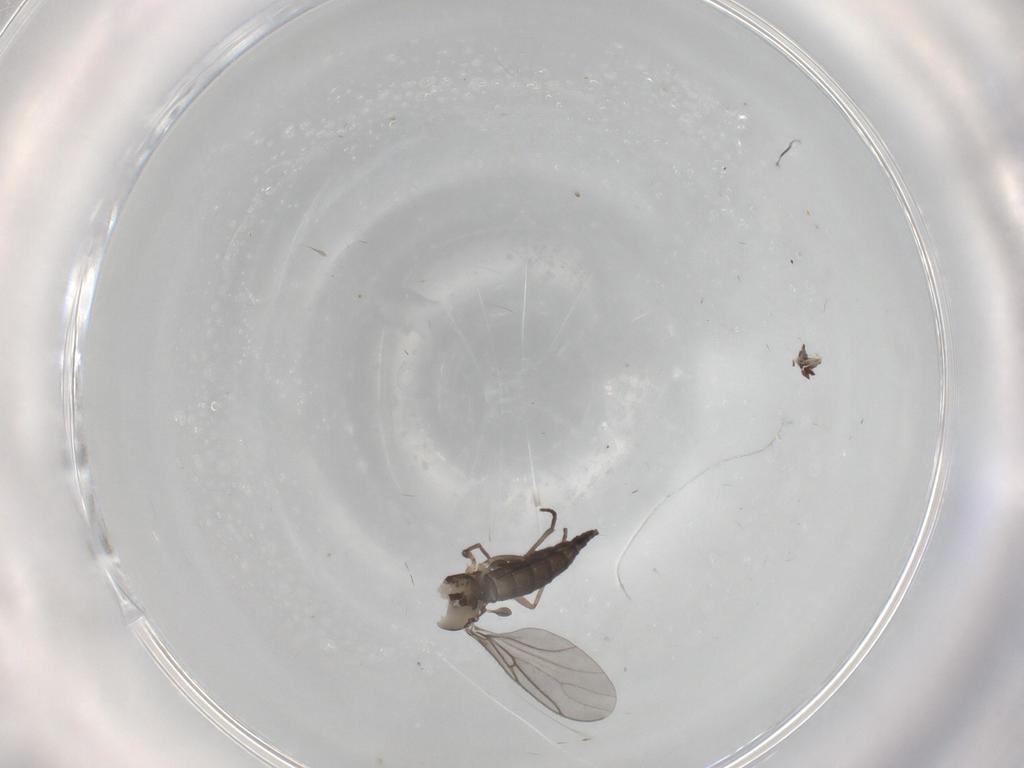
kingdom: Animalia
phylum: Arthropoda
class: Insecta
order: Diptera
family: Sciaridae
